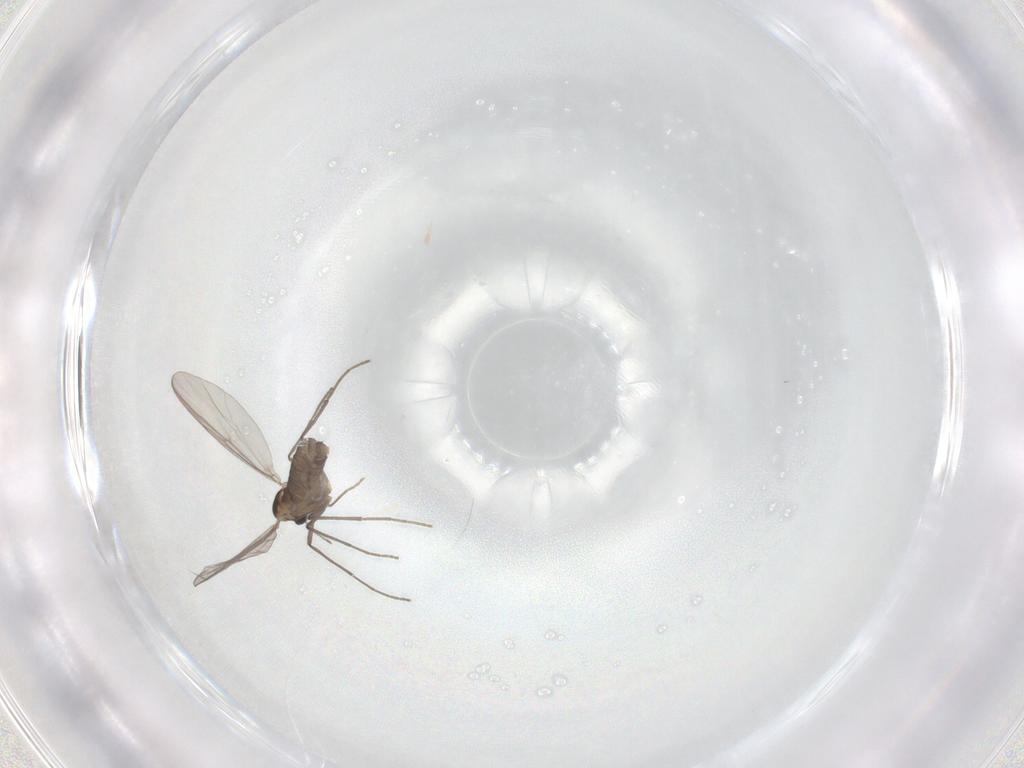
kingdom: Animalia
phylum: Arthropoda
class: Insecta
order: Diptera
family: Chironomidae
